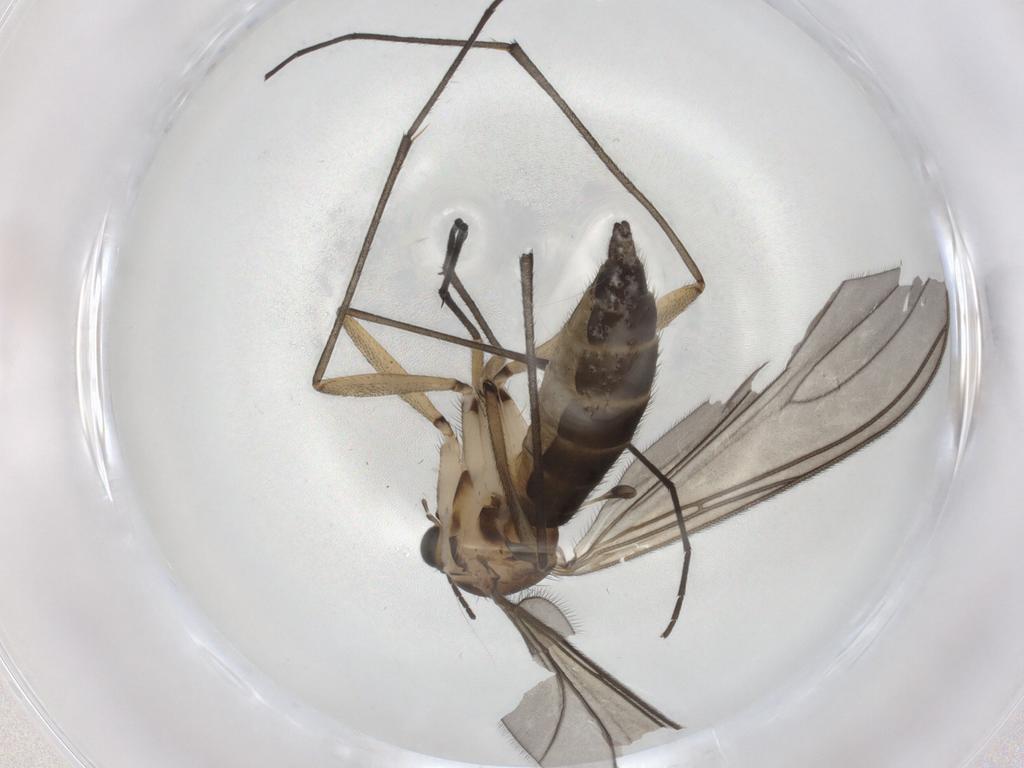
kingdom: Animalia
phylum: Arthropoda
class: Insecta
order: Diptera
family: Sciaridae
